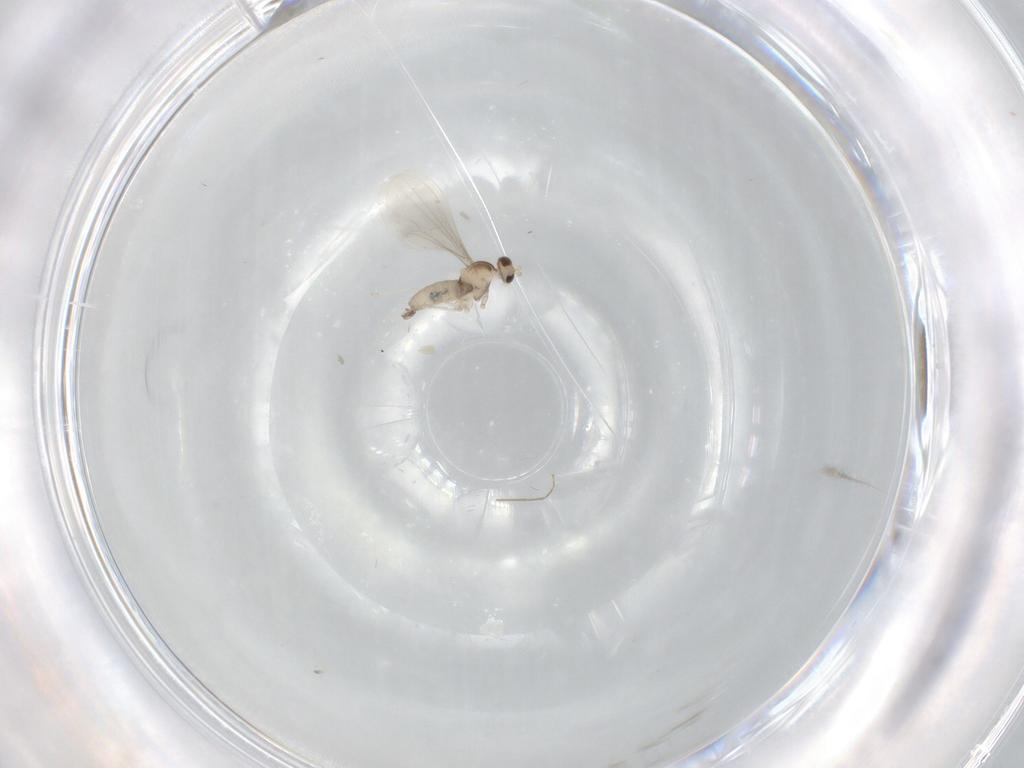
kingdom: Animalia
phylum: Arthropoda
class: Insecta
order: Diptera
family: Cecidomyiidae
